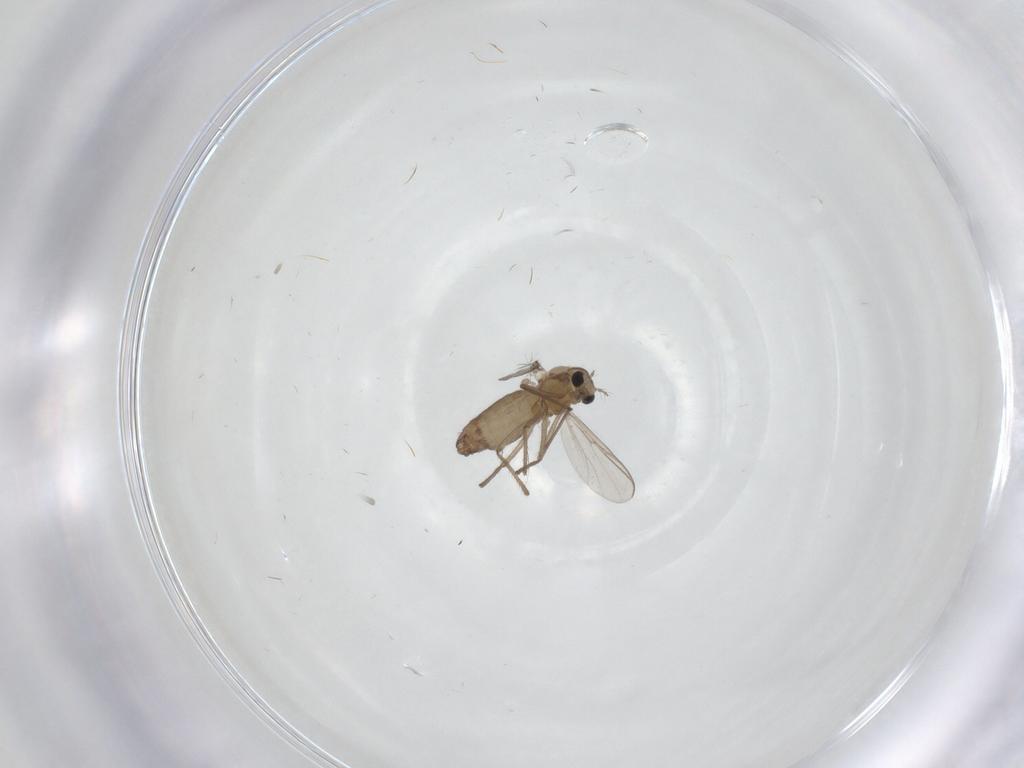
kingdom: Animalia
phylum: Arthropoda
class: Insecta
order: Diptera
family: Chironomidae
